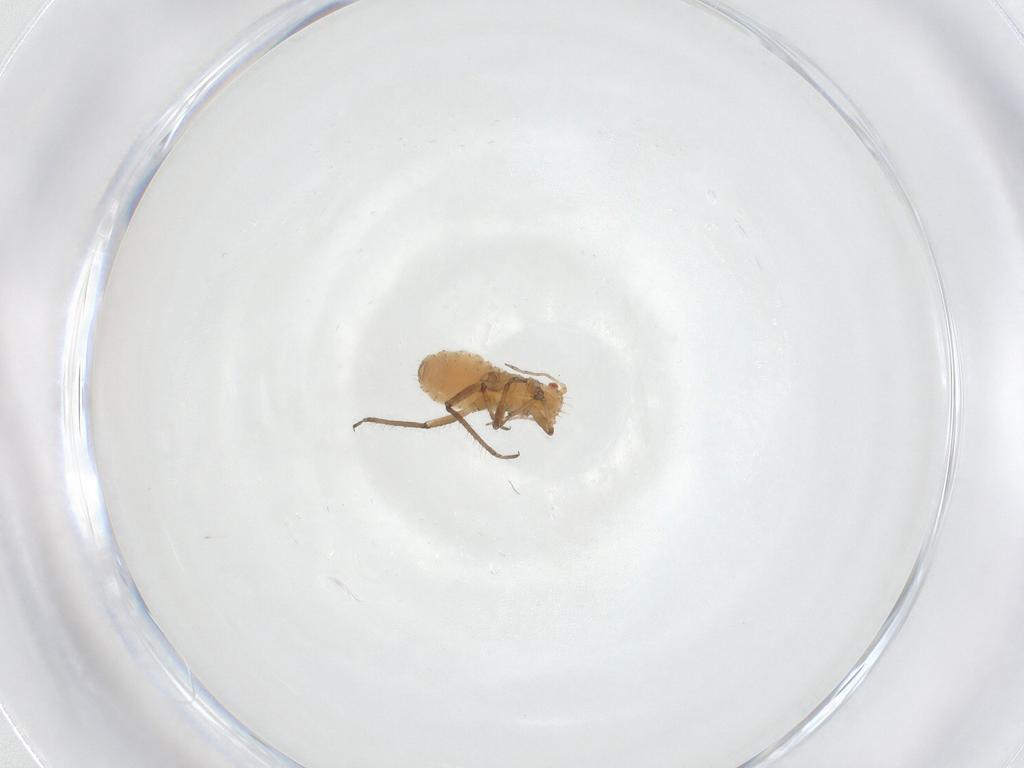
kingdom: Animalia
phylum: Arthropoda
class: Insecta
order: Hemiptera
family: Aphididae
